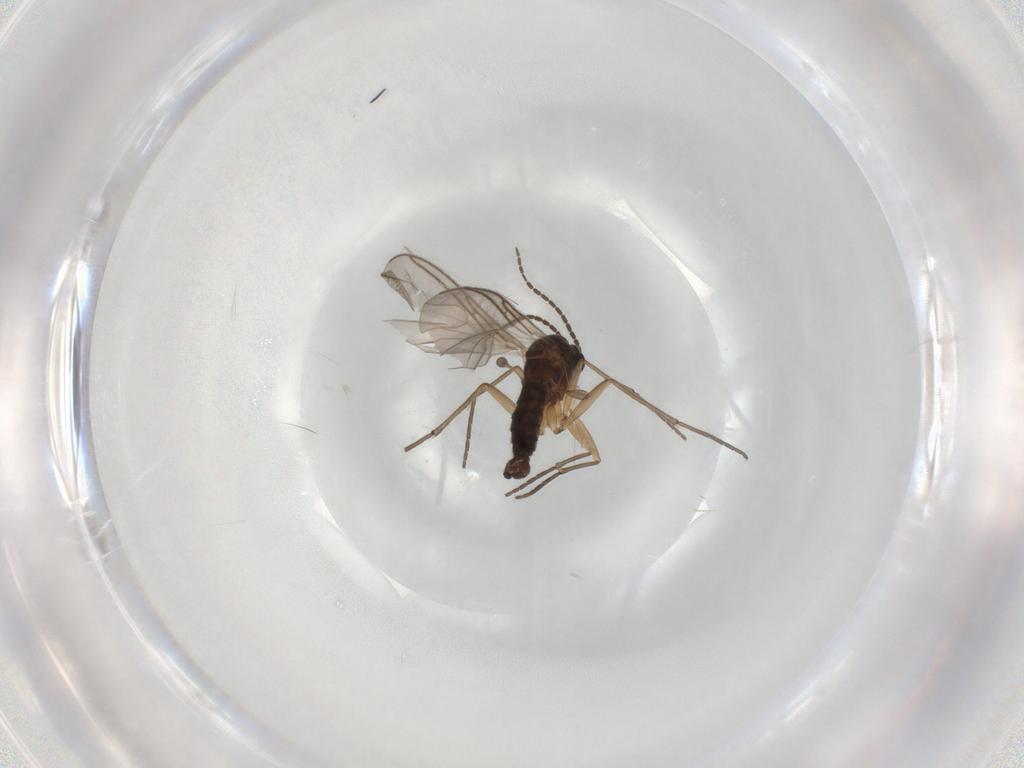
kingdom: Animalia
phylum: Arthropoda
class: Insecta
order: Diptera
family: Sciaridae
